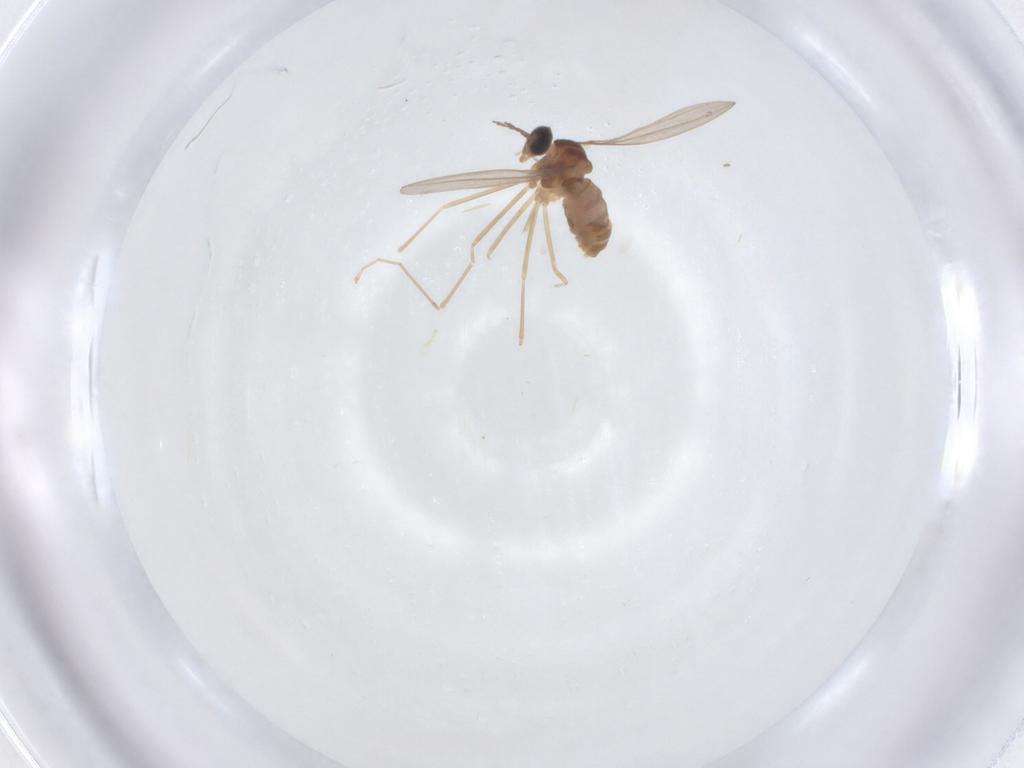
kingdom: Animalia
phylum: Arthropoda
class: Insecta
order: Diptera
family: Cecidomyiidae
